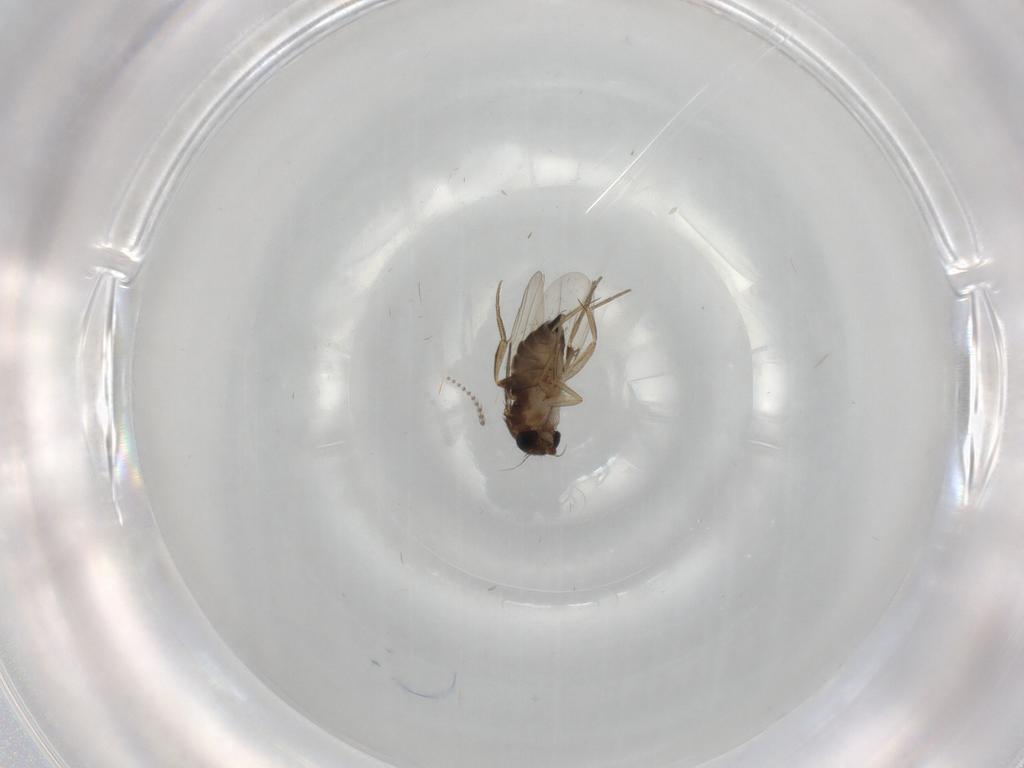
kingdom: Animalia
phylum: Arthropoda
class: Insecta
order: Diptera
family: Phoridae
